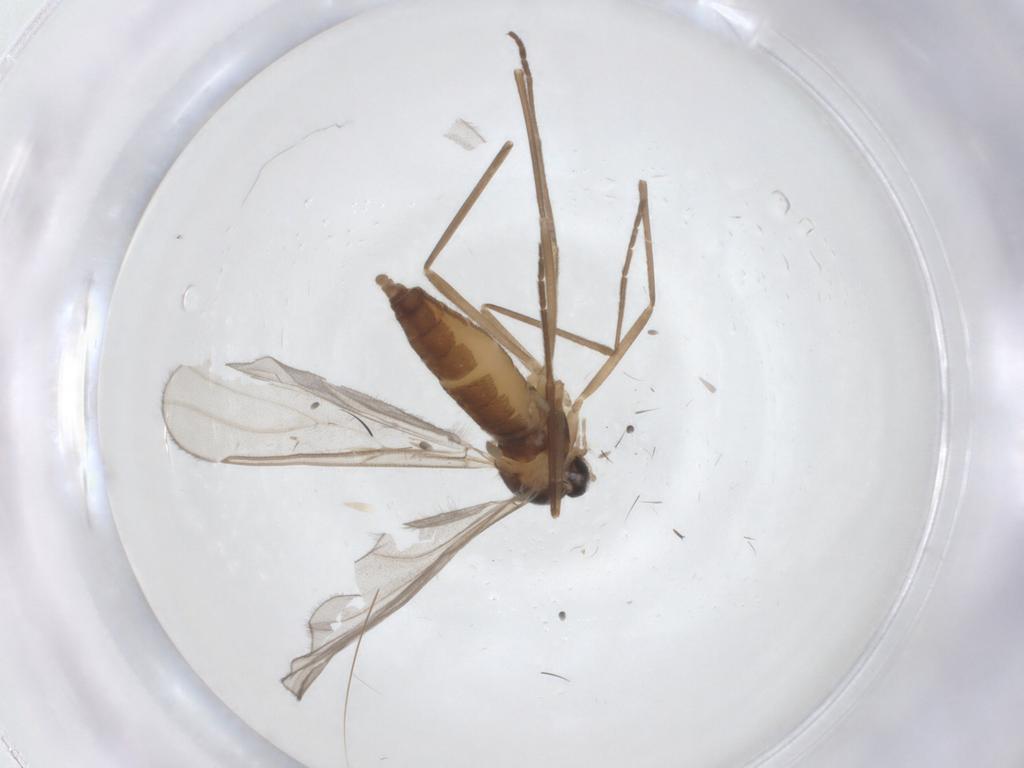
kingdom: Animalia
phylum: Arthropoda
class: Insecta
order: Diptera
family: Cecidomyiidae
